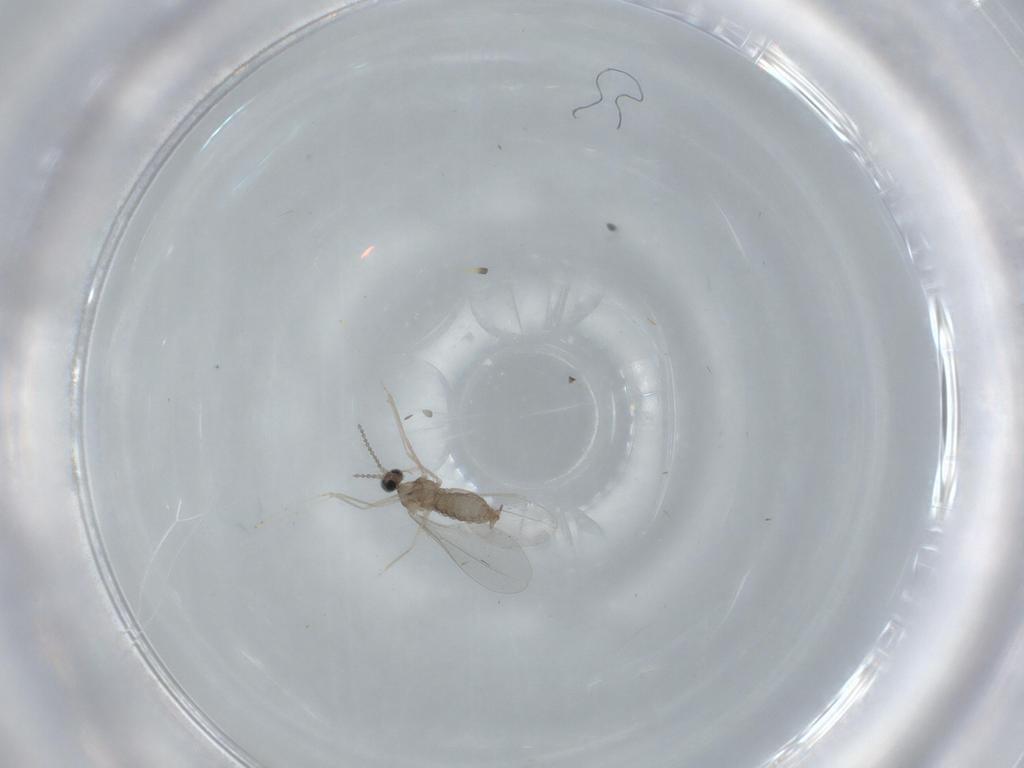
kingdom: Animalia
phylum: Arthropoda
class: Insecta
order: Diptera
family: Cecidomyiidae
